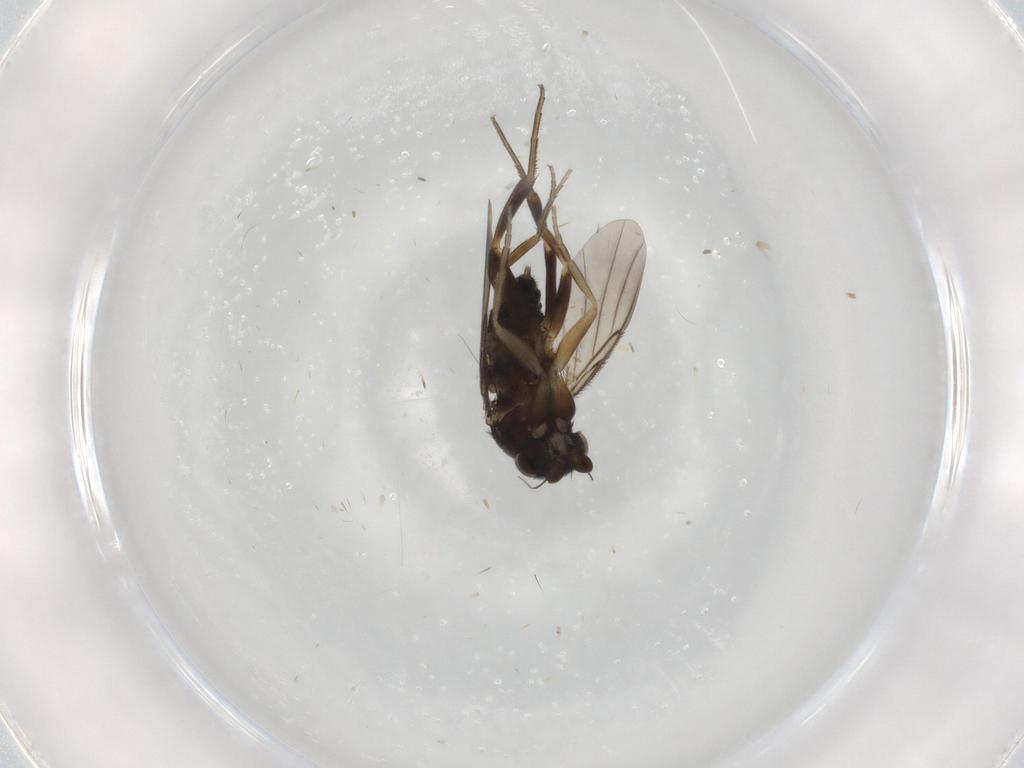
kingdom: Animalia
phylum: Arthropoda
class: Insecta
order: Diptera
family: Phoridae
